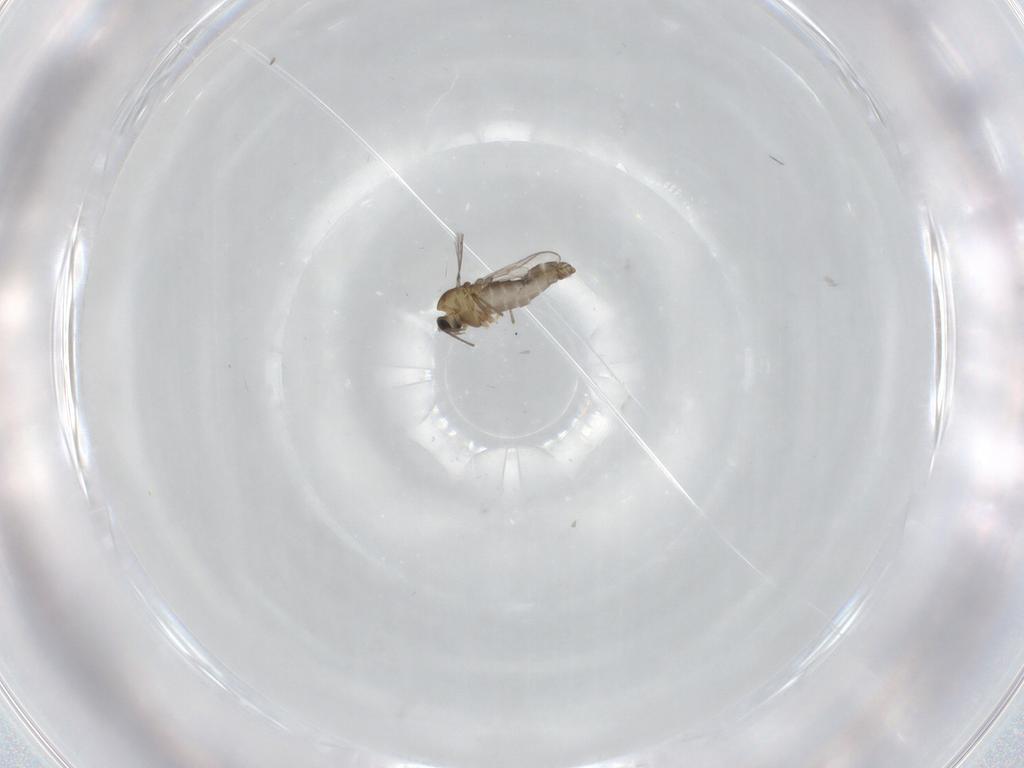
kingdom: Animalia
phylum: Arthropoda
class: Insecta
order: Diptera
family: Chironomidae
